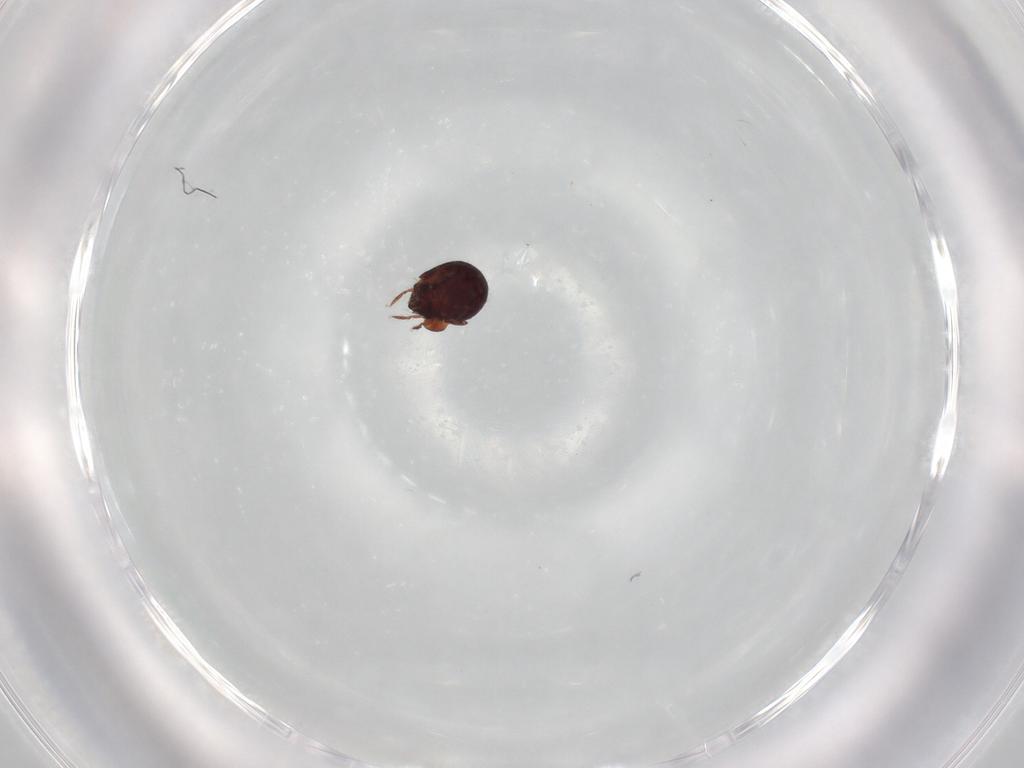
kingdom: Animalia
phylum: Arthropoda
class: Arachnida
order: Sarcoptiformes
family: Humerobatidae
